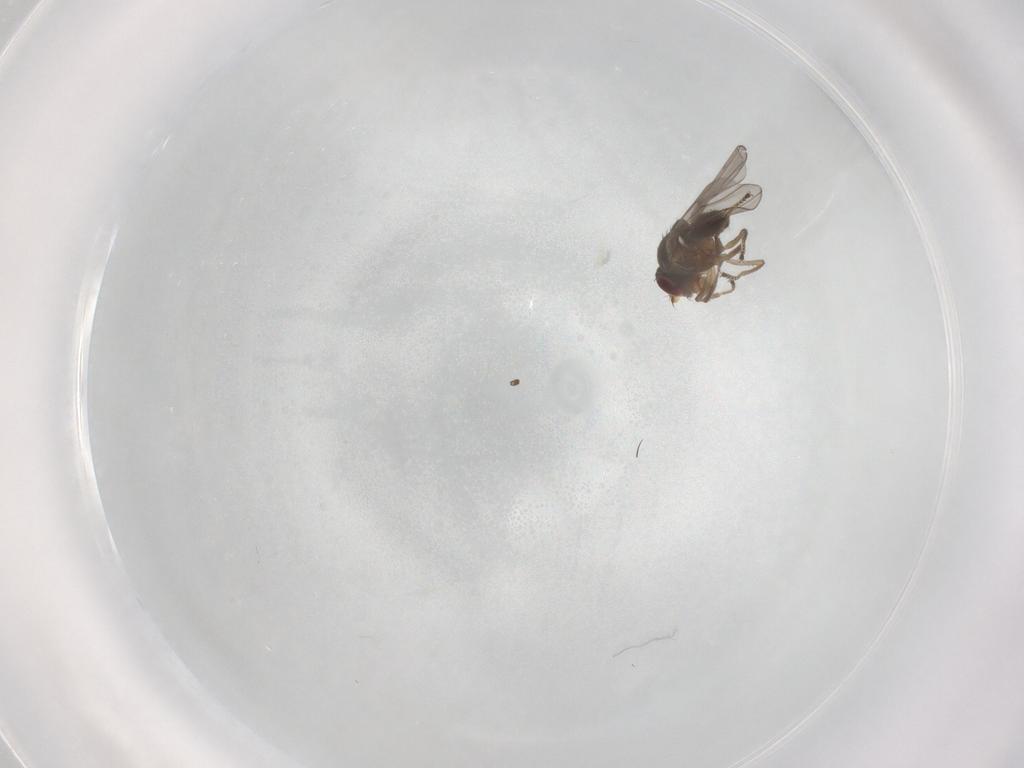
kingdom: Animalia
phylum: Arthropoda
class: Insecta
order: Diptera
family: Ephydridae
